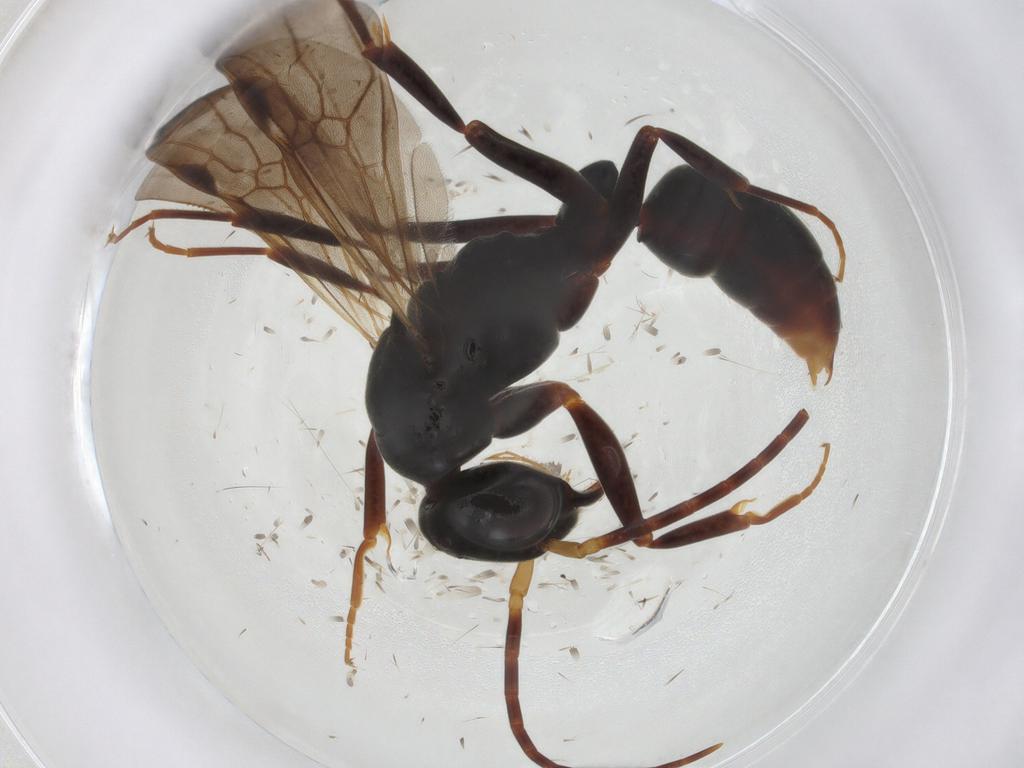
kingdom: Animalia
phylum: Arthropoda
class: Insecta
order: Hymenoptera
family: Formicidae
